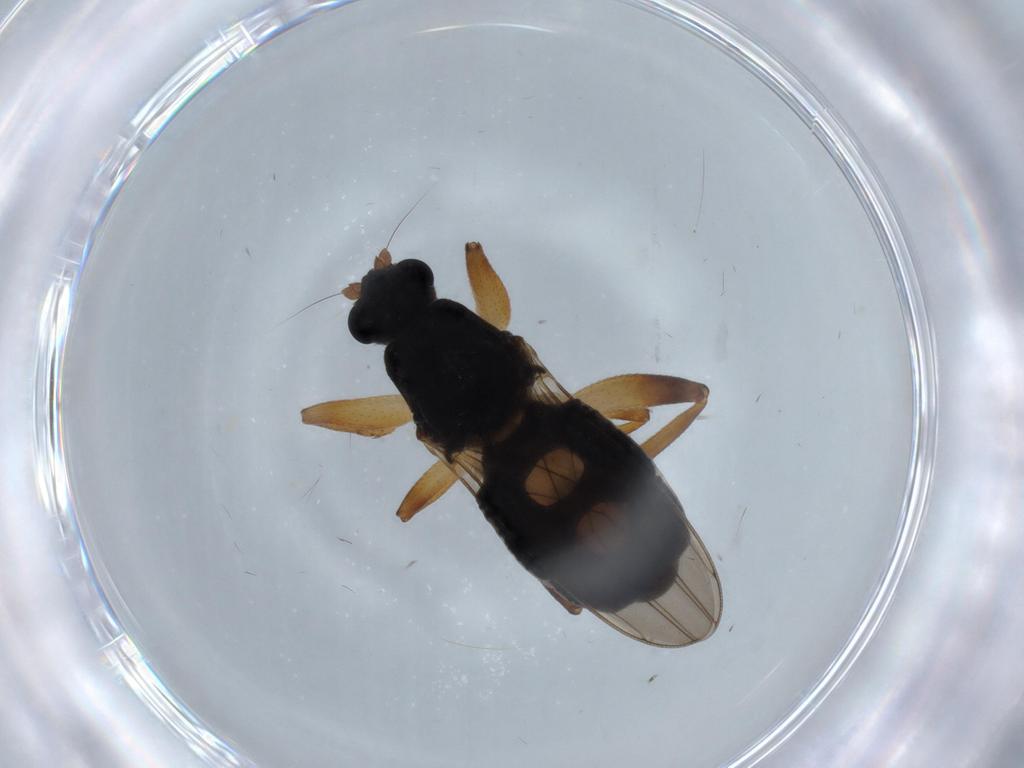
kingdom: Animalia
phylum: Arthropoda
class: Insecta
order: Diptera
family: Sphaeroceridae
